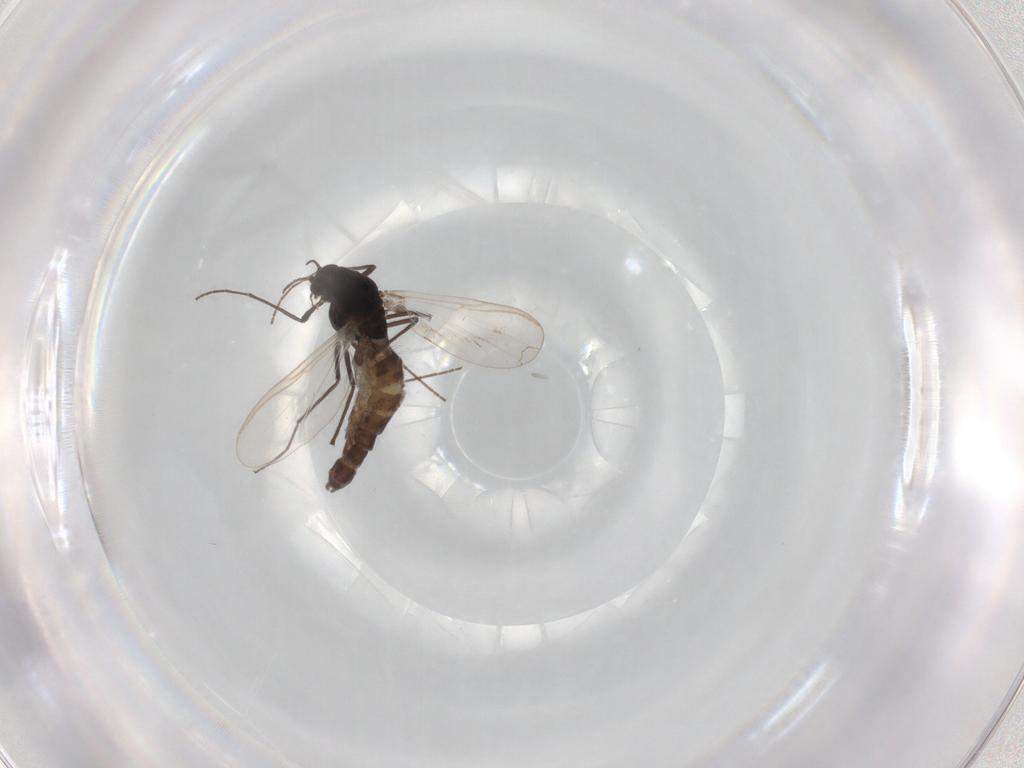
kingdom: Animalia
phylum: Arthropoda
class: Insecta
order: Diptera
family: Chironomidae
